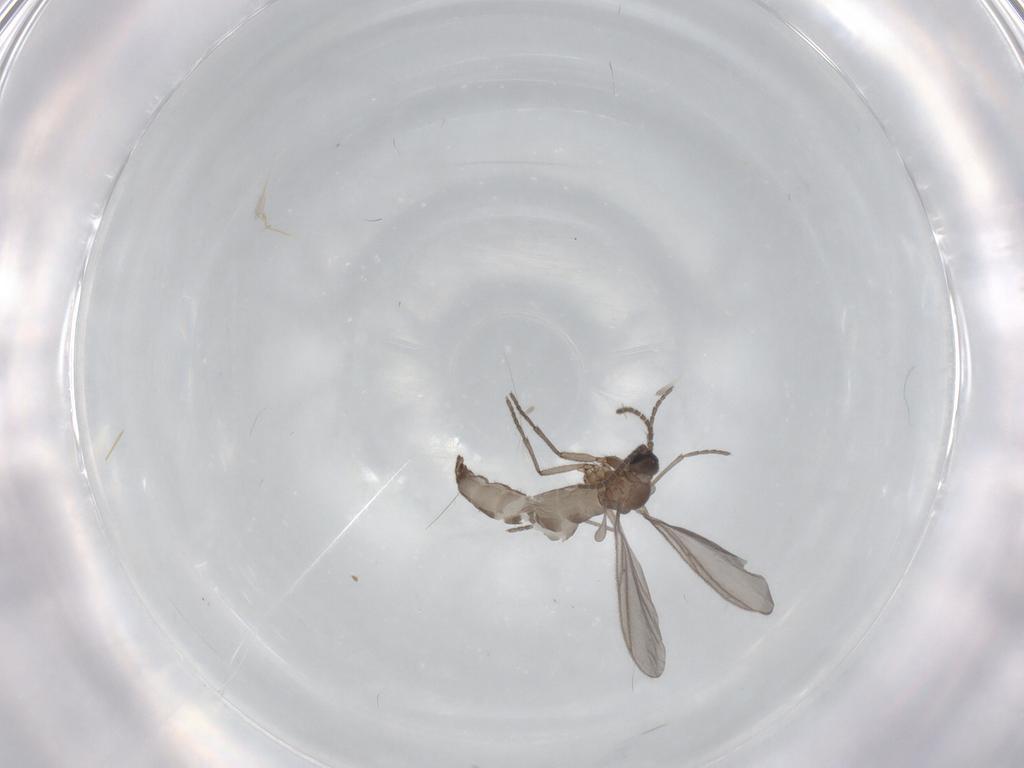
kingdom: Animalia
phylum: Arthropoda
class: Insecta
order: Diptera
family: Sciaridae
